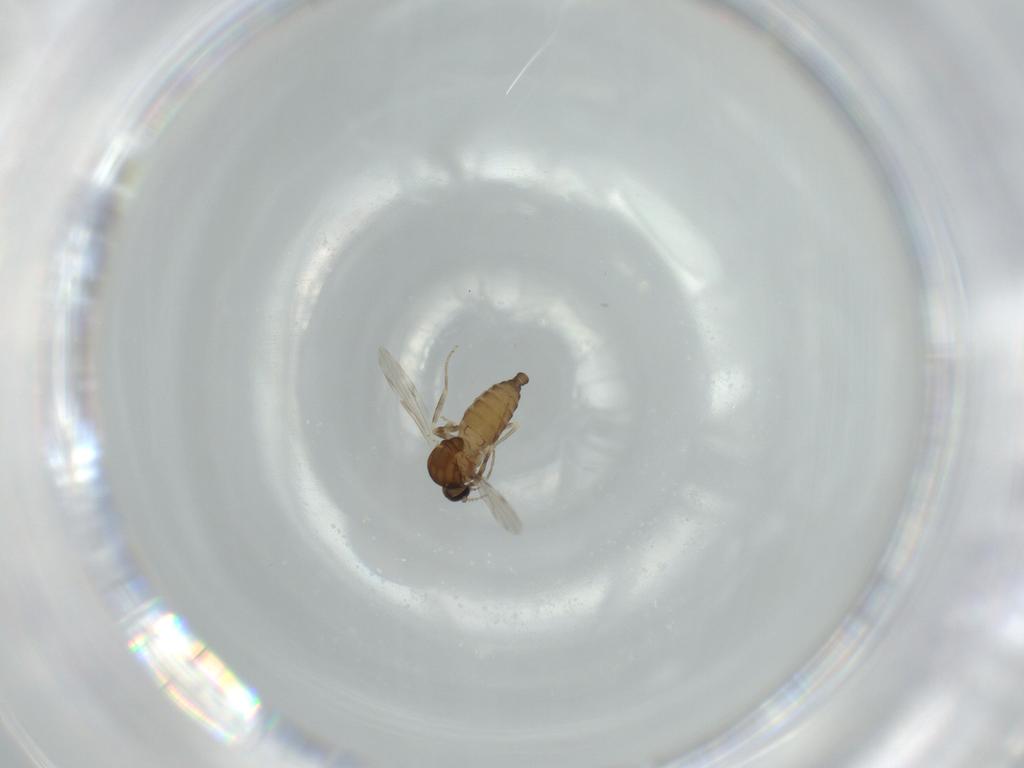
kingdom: Animalia
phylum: Arthropoda
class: Insecta
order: Diptera
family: Ceratopogonidae
